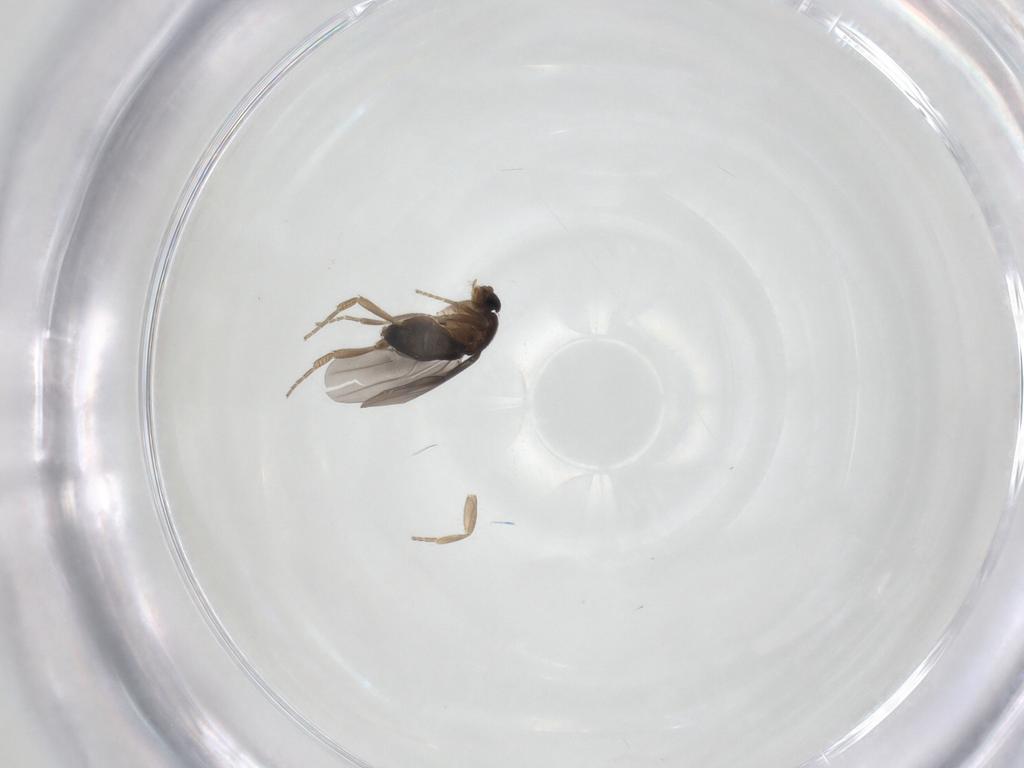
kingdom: Animalia
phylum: Arthropoda
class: Insecta
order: Diptera
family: Phoridae
